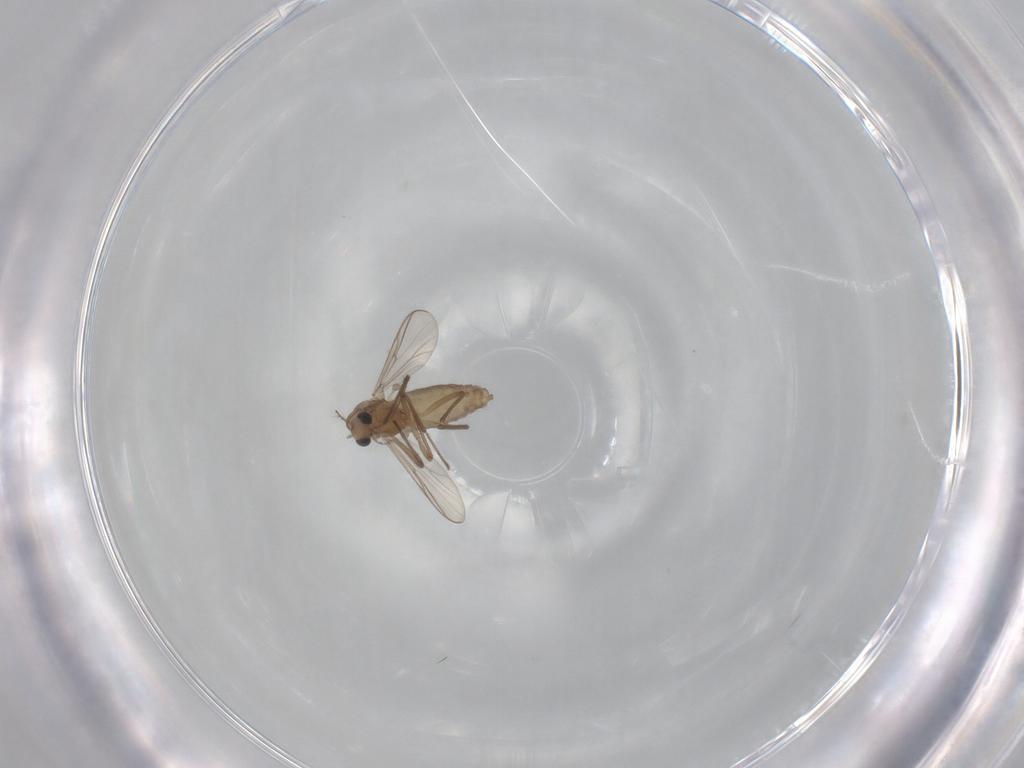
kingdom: Animalia
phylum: Arthropoda
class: Insecta
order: Diptera
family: Chironomidae
